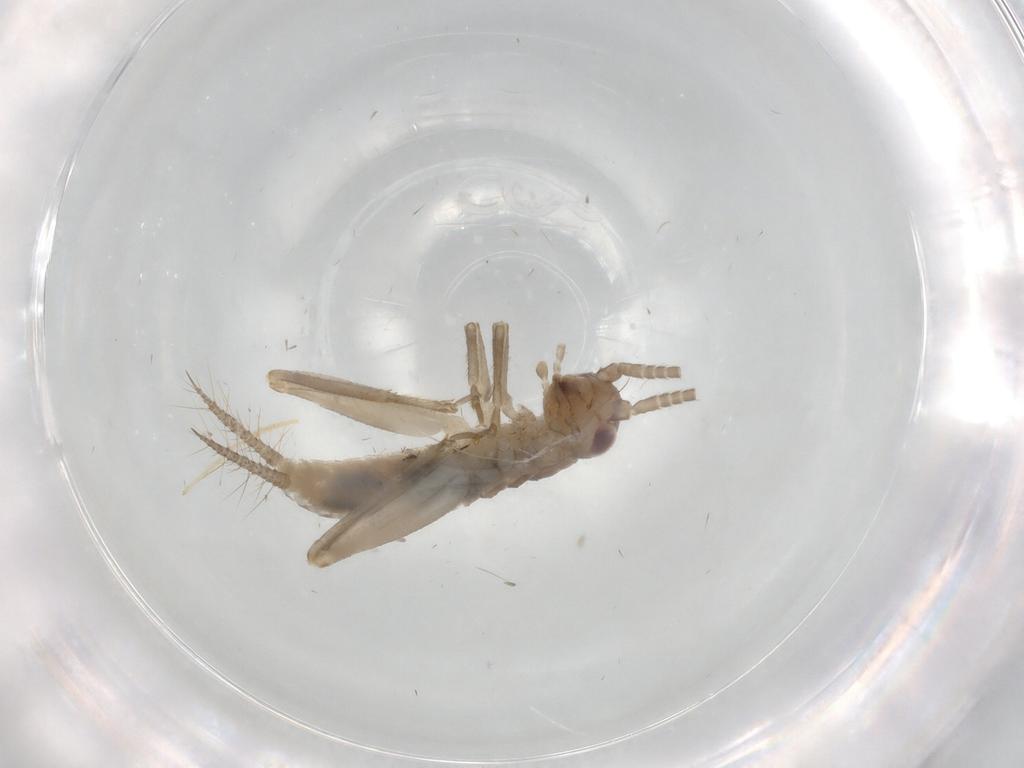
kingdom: Animalia
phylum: Arthropoda
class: Insecta
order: Orthoptera
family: Gryllidae
